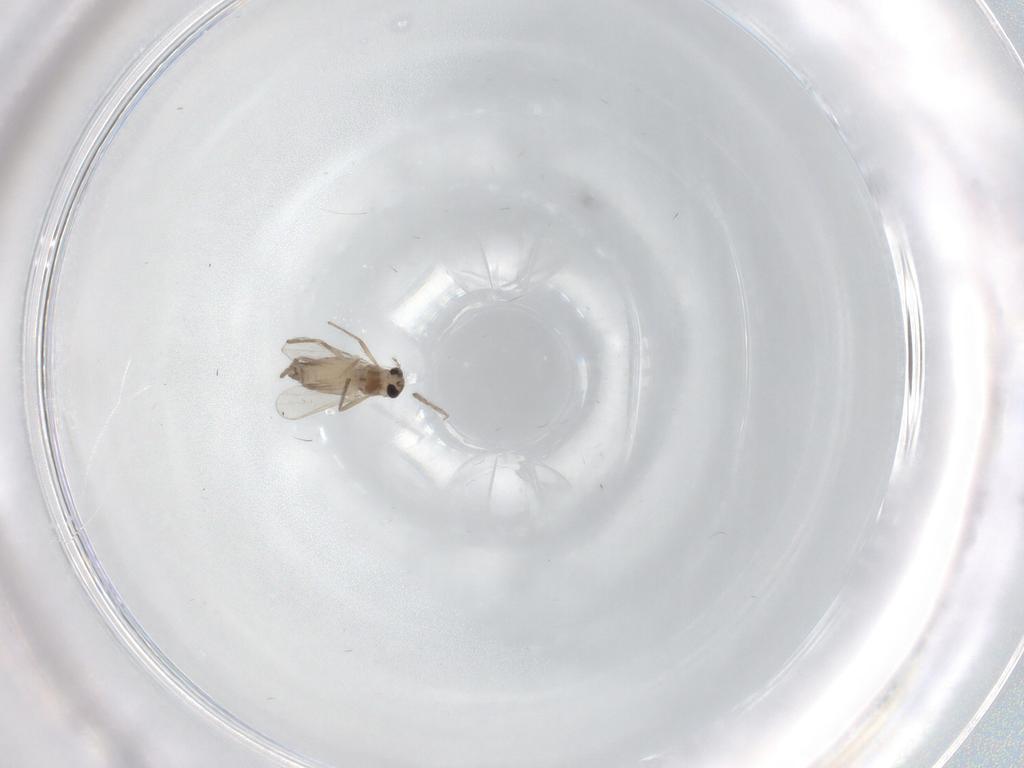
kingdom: Animalia
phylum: Arthropoda
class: Insecta
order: Diptera
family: Chironomidae
